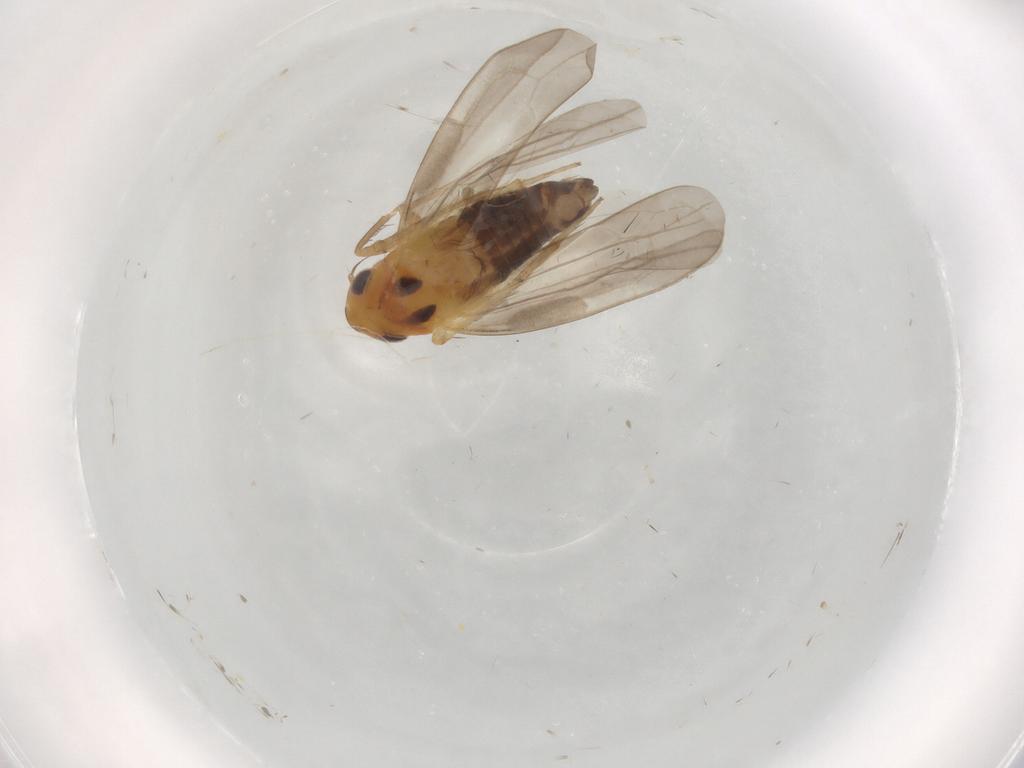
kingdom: Animalia
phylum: Arthropoda
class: Insecta
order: Hemiptera
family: Cicadellidae
